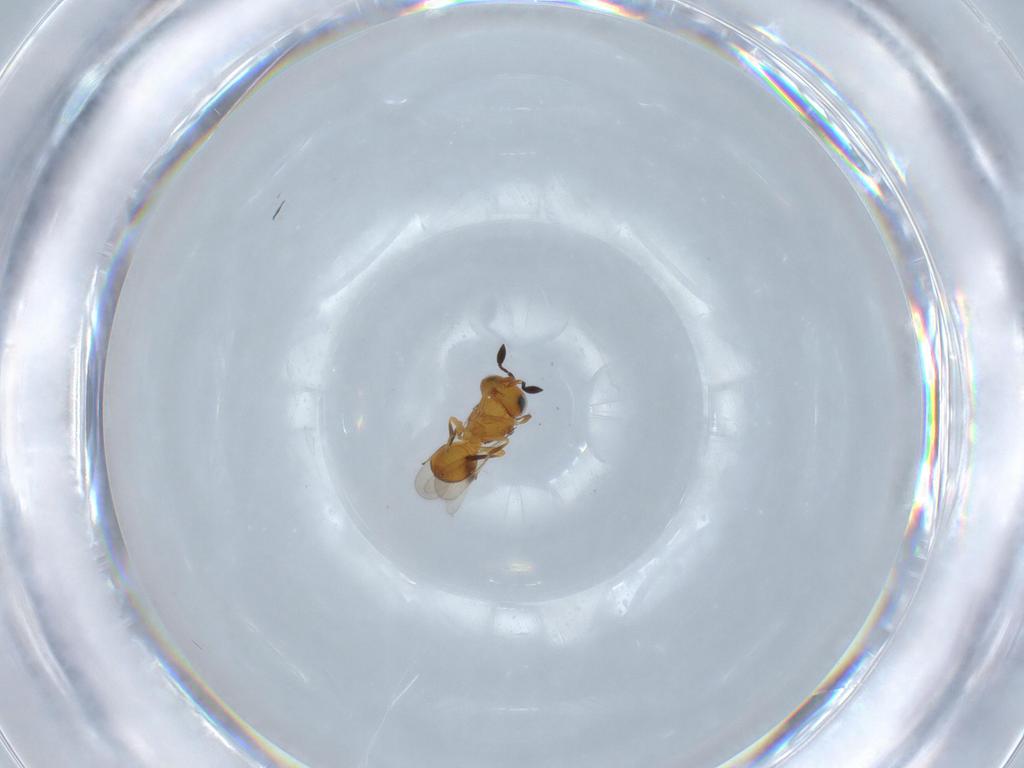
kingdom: Animalia
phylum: Arthropoda
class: Insecta
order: Hymenoptera
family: Scelionidae
